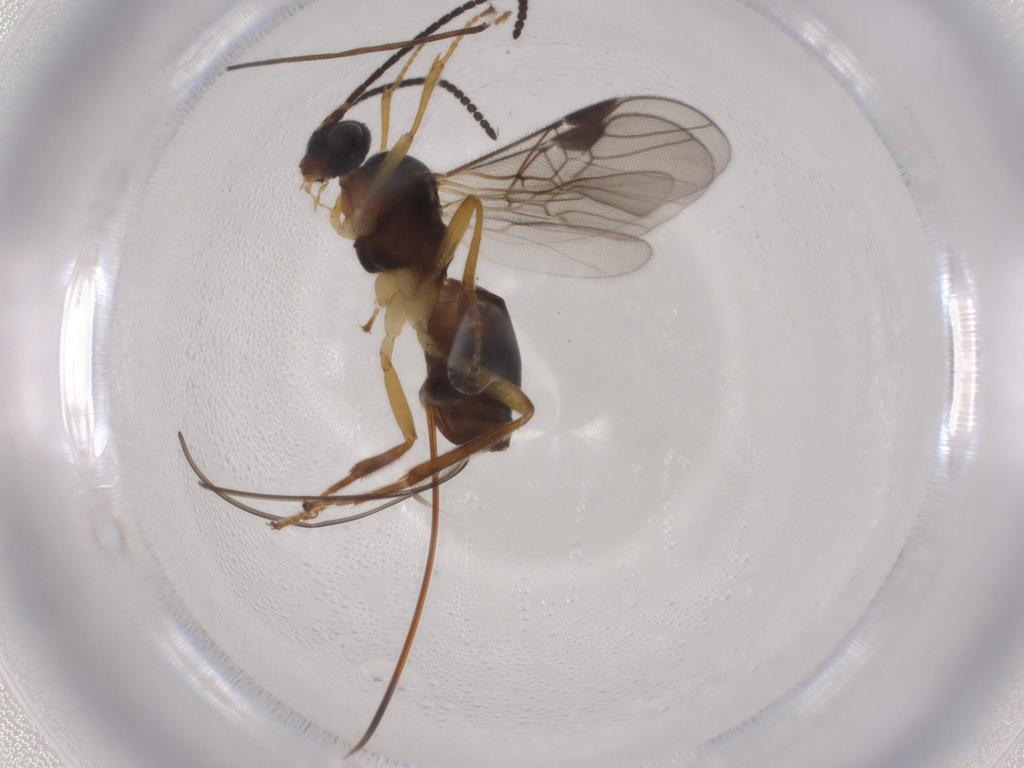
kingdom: Animalia
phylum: Arthropoda
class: Insecta
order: Hymenoptera
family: Braconidae
